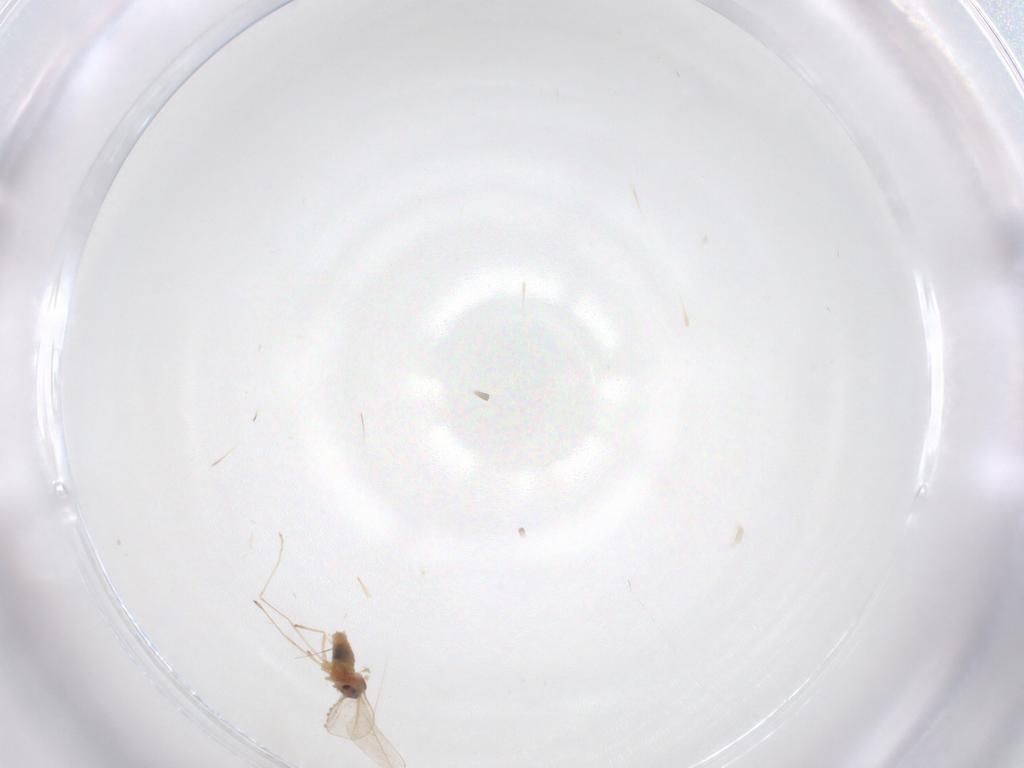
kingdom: Animalia
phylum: Arthropoda
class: Insecta
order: Diptera
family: Cecidomyiidae
